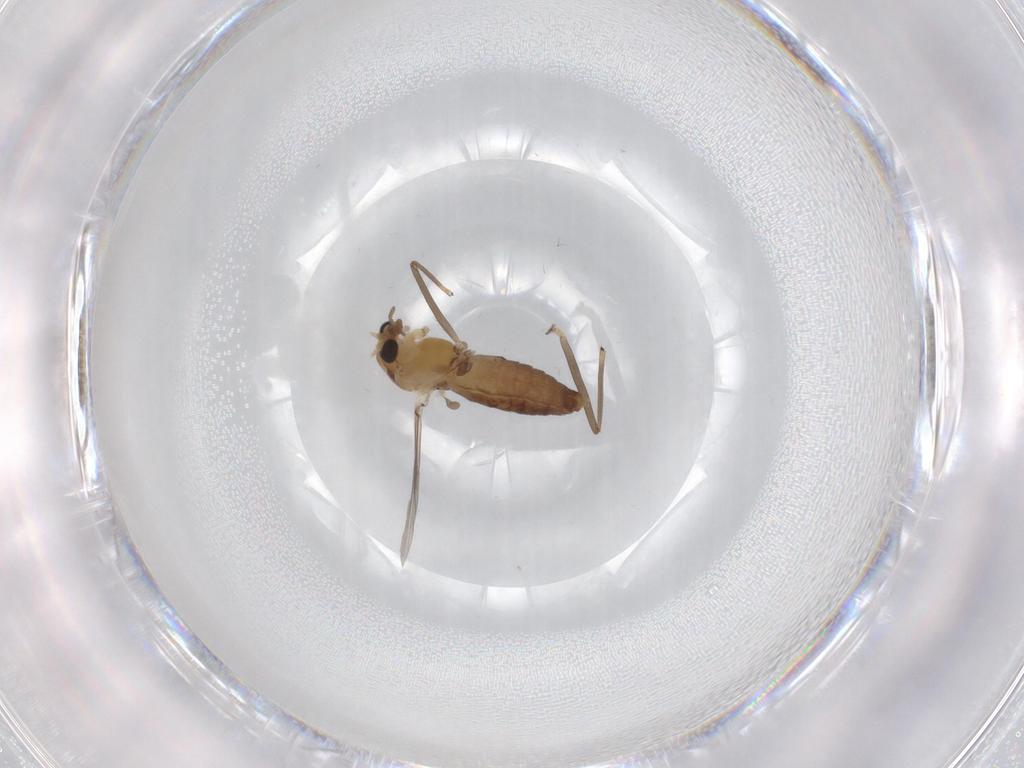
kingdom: Animalia
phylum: Arthropoda
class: Insecta
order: Diptera
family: Chironomidae
